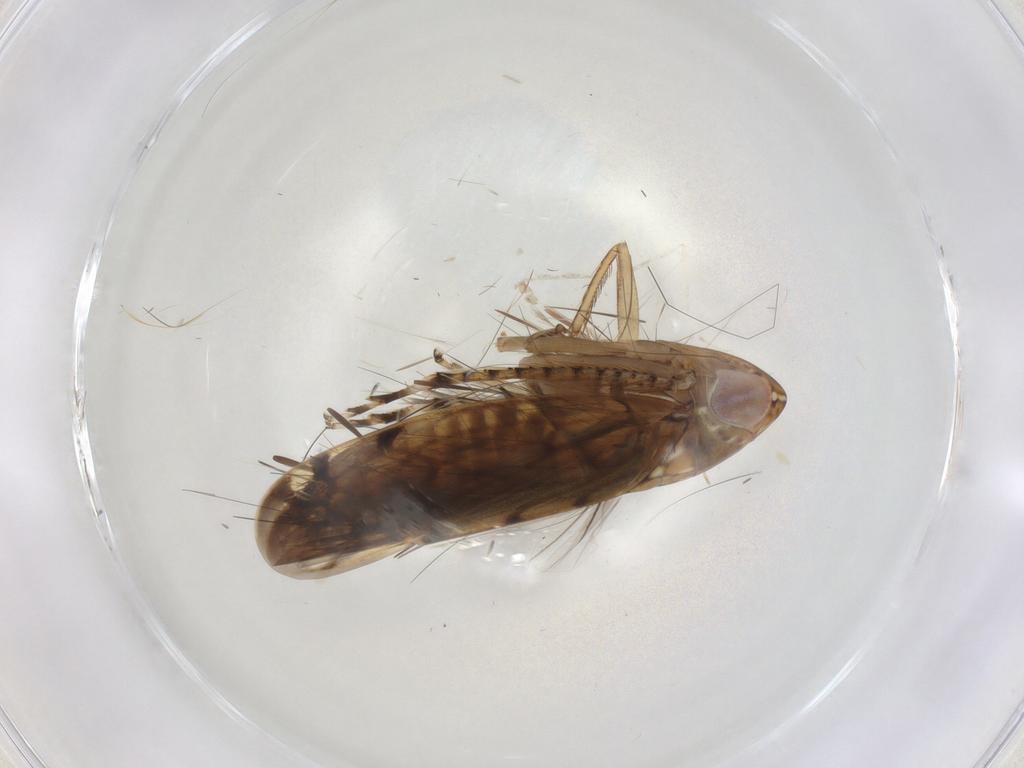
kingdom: Animalia
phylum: Arthropoda
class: Insecta
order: Hemiptera
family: Cicadellidae
